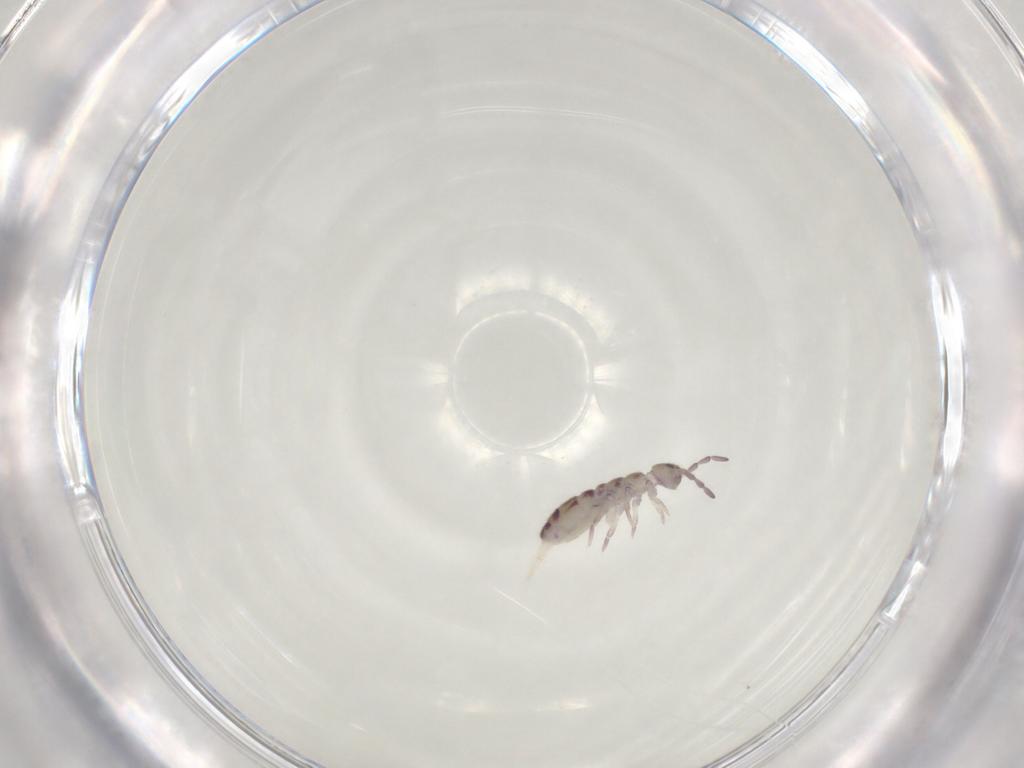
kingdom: Animalia
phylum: Arthropoda
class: Collembola
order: Entomobryomorpha
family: Isotomidae
